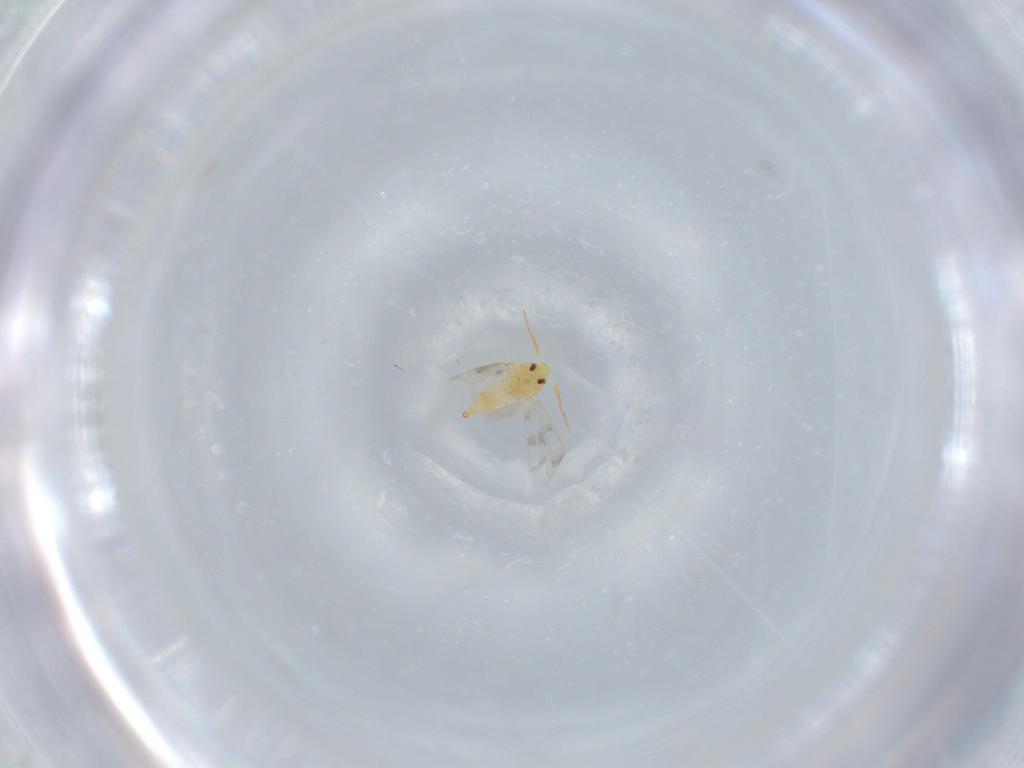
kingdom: Animalia
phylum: Arthropoda
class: Insecta
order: Hemiptera
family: Aleyrodidae
